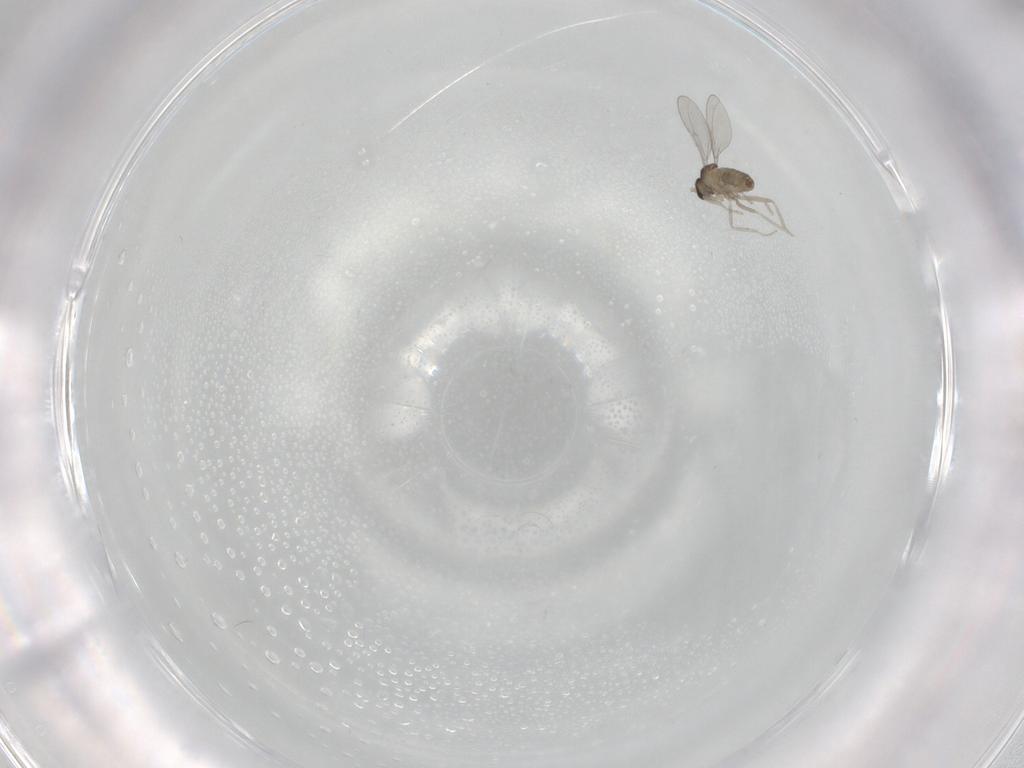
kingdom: Animalia
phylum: Arthropoda
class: Insecta
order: Diptera
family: Cecidomyiidae
